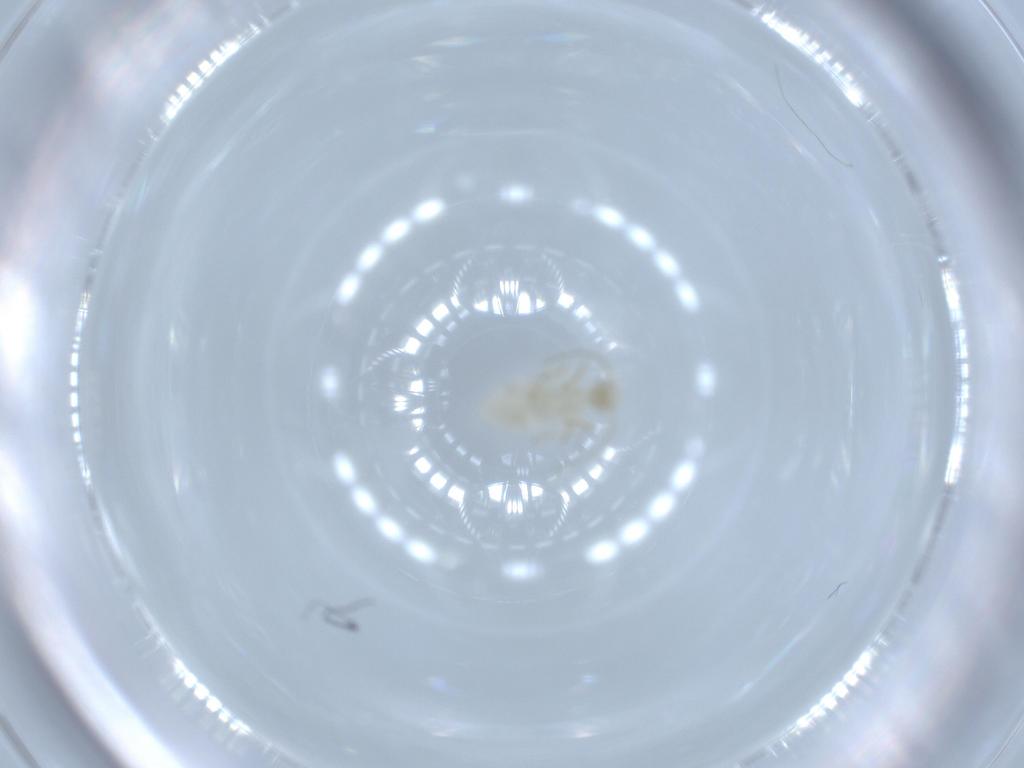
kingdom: Animalia
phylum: Arthropoda
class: Insecta
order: Psocodea
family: Caeciliusidae
